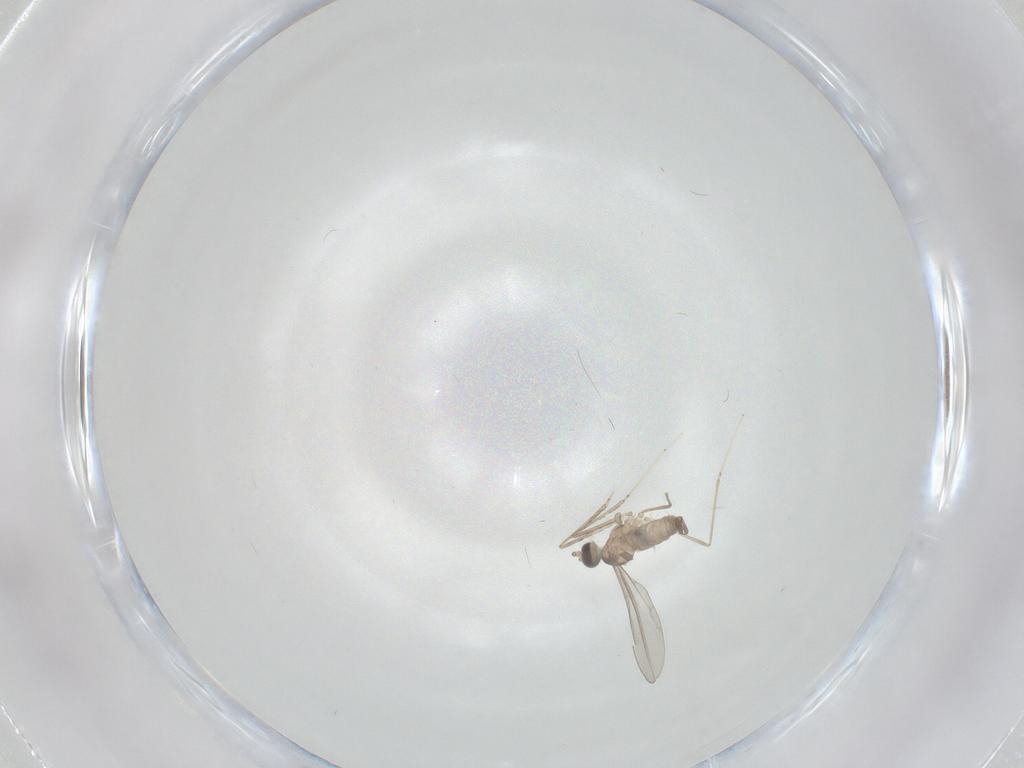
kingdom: Animalia
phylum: Arthropoda
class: Insecta
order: Diptera
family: Cecidomyiidae
